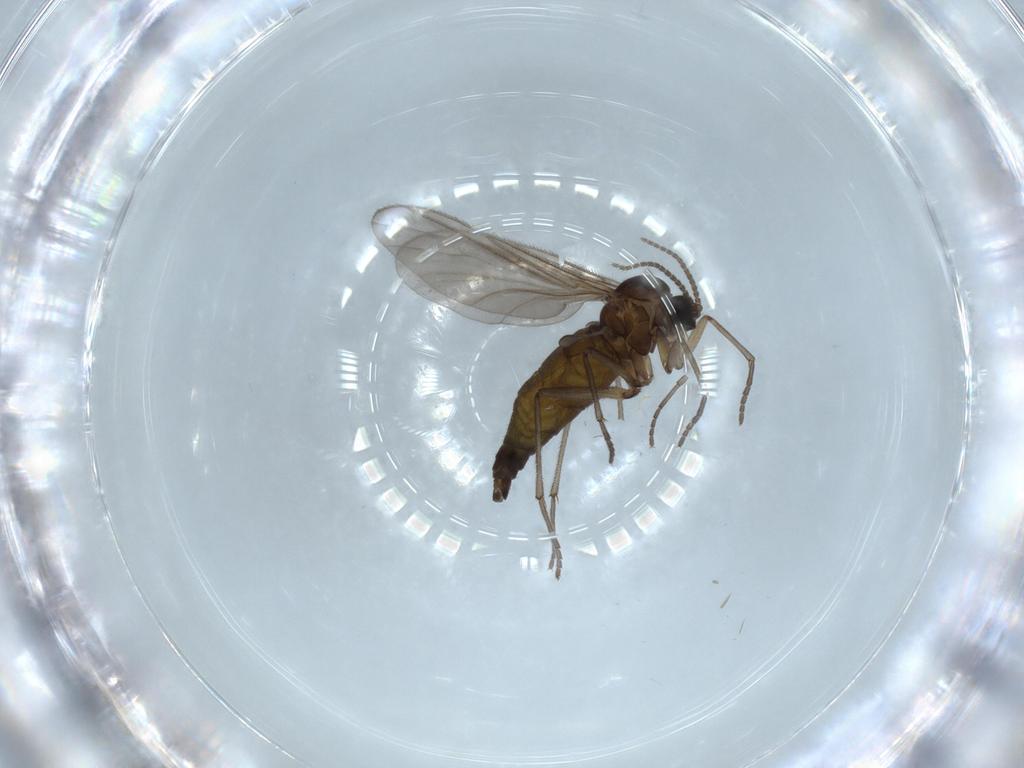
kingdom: Animalia
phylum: Arthropoda
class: Insecta
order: Diptera
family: Sciaridae
